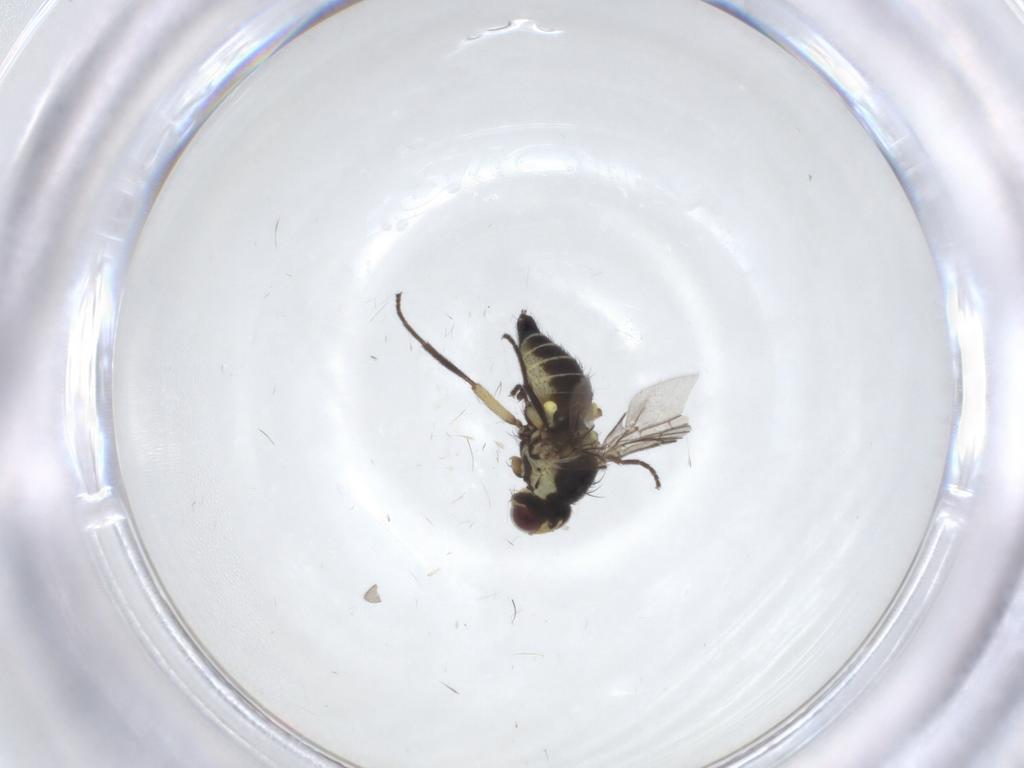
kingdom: Animalia
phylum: Arthropoda
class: Insecta
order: Diptera
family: Agromyzidae
